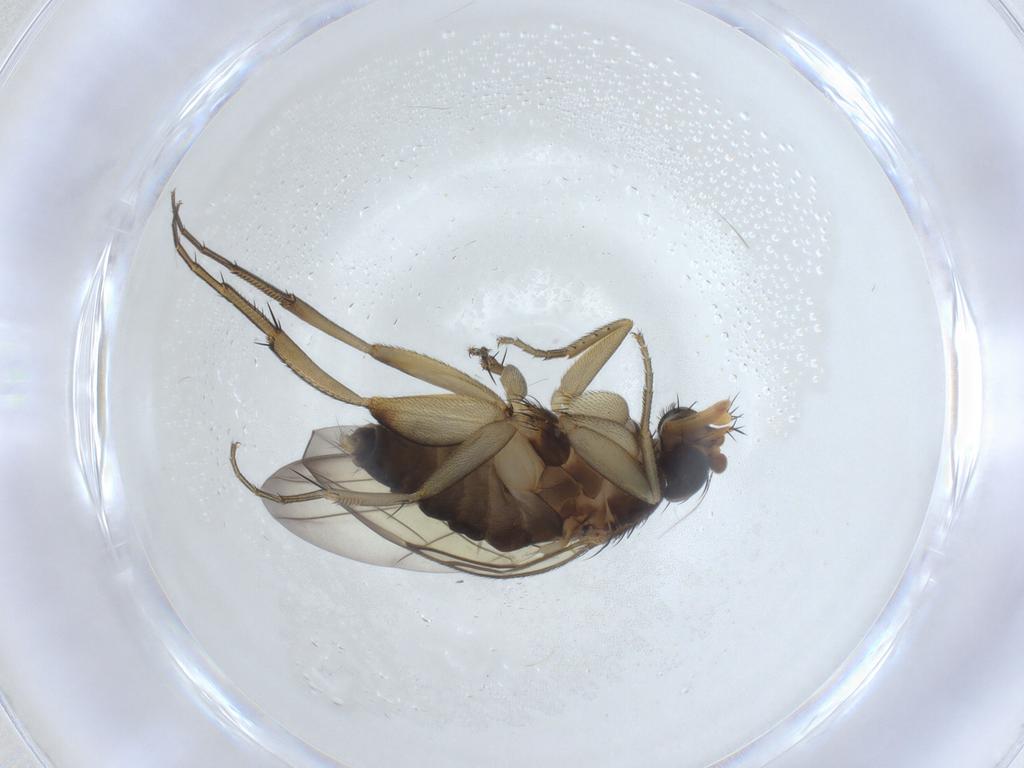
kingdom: Animalia
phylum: Arthropoda
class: Insecta
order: Diptera
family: Phoridae
